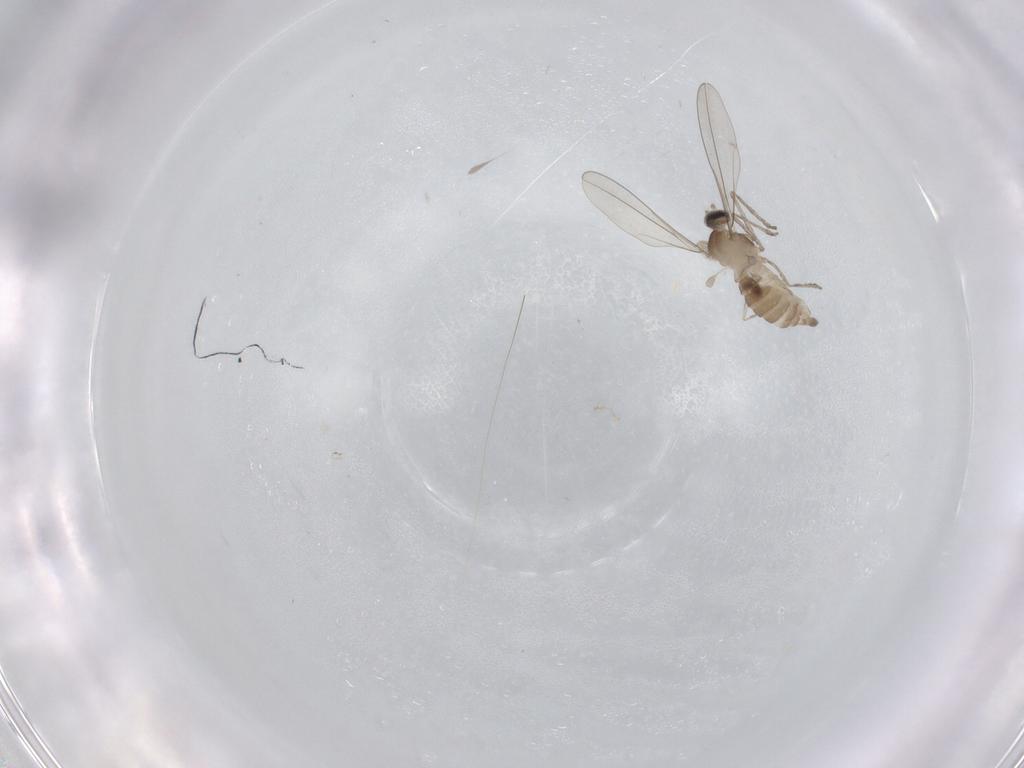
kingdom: Animalia
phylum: Arthropoda
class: Insecta
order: Diptera
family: Cecidomyiidae
